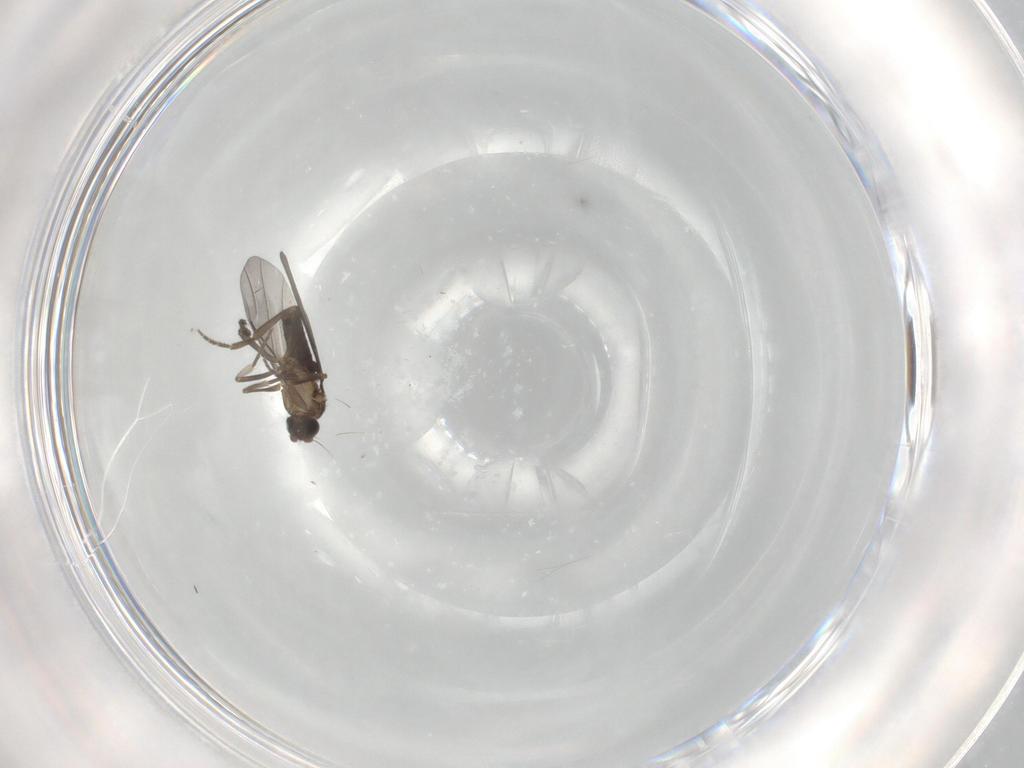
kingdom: Animalia
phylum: Arthropoda
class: Insecta
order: Diptera
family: Phoridae
